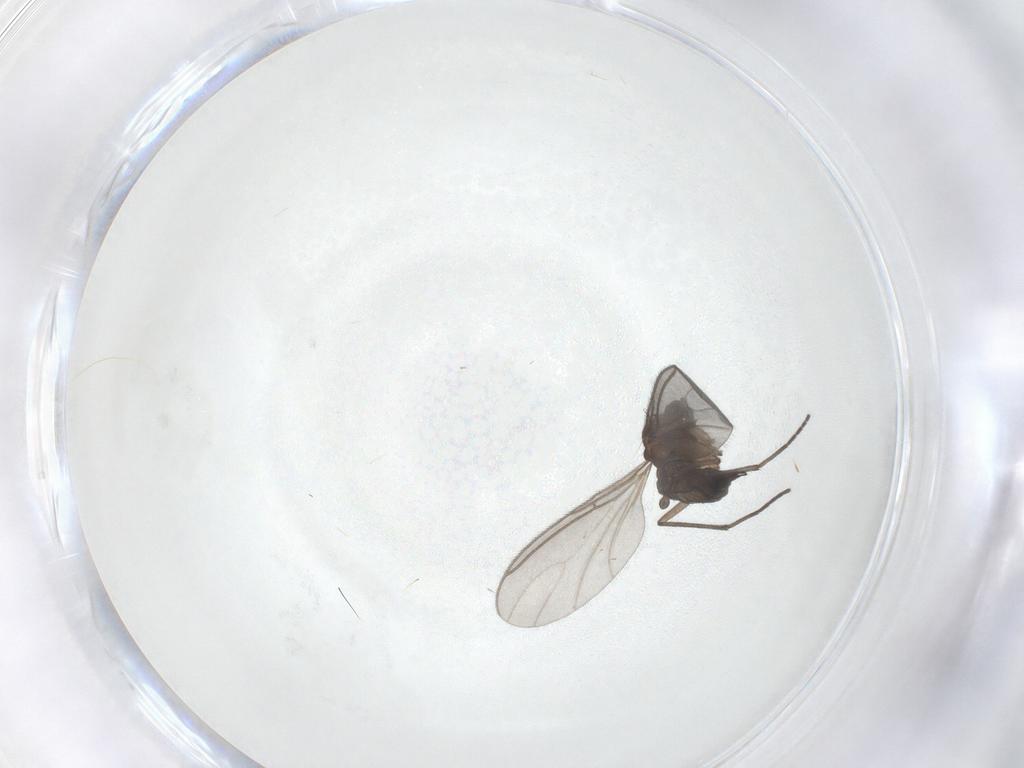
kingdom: Animalia
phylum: Arthropoda
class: Insecta
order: Diptera
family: Sciaridae
